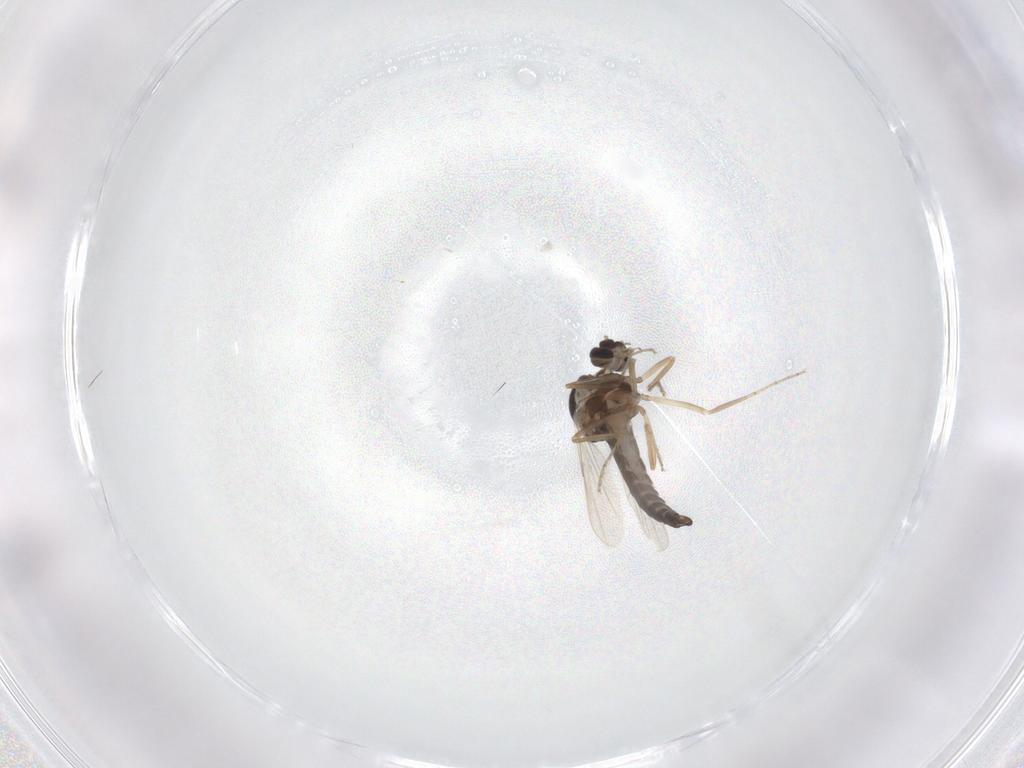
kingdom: Animalia
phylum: Arthropoda
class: Insecta
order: Diptera
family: Ceratopogonidae
